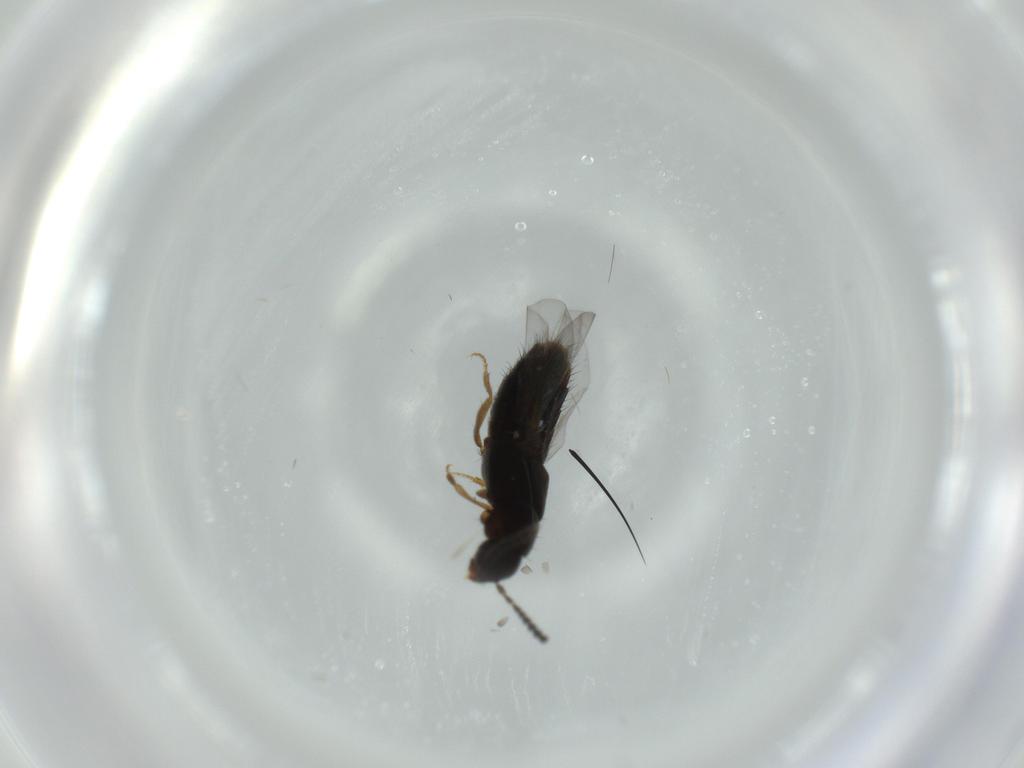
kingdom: Animalia
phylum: Arthropoda
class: Insecta
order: Coleoptera
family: Staphylinidae
